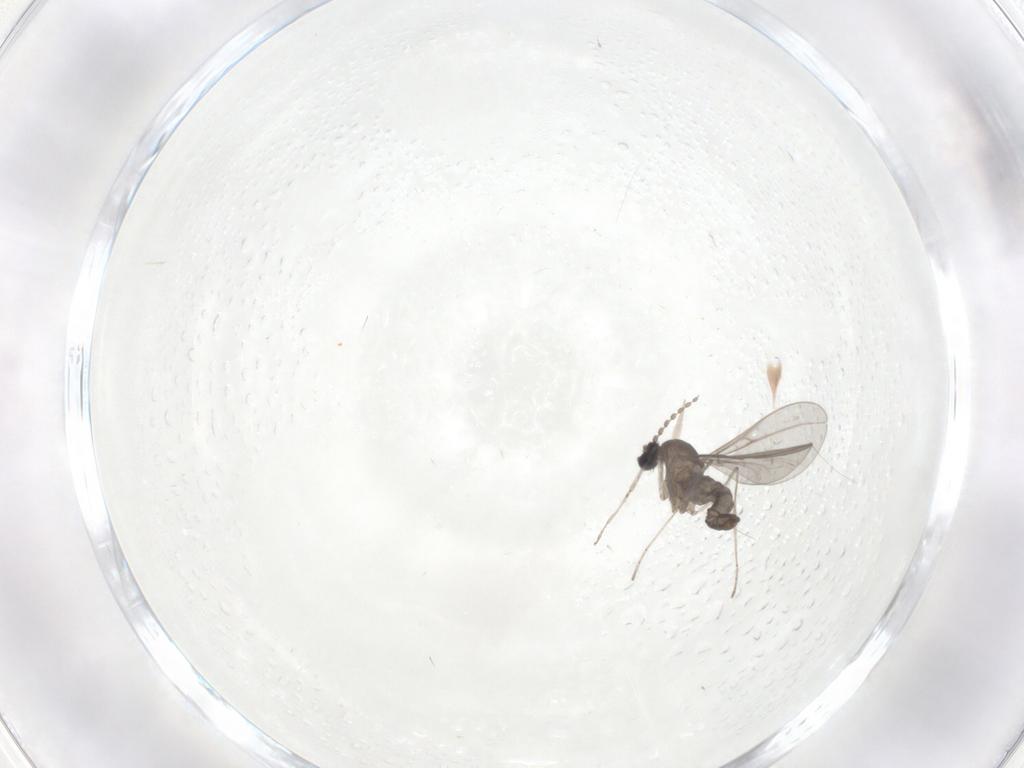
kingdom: Animalia
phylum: Arthropoda
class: Insecta
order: Diptera
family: Cecidomyiidae
